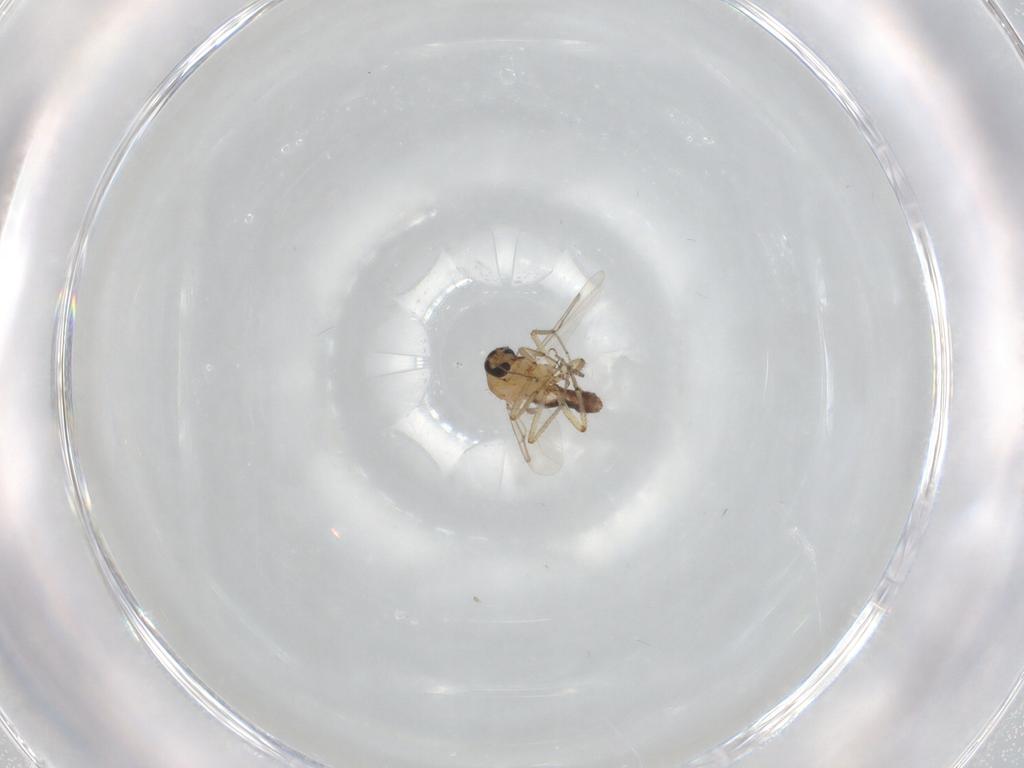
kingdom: Animalia
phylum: Arthropoda
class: Insecta
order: Diptera
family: Ceratopogonidae
